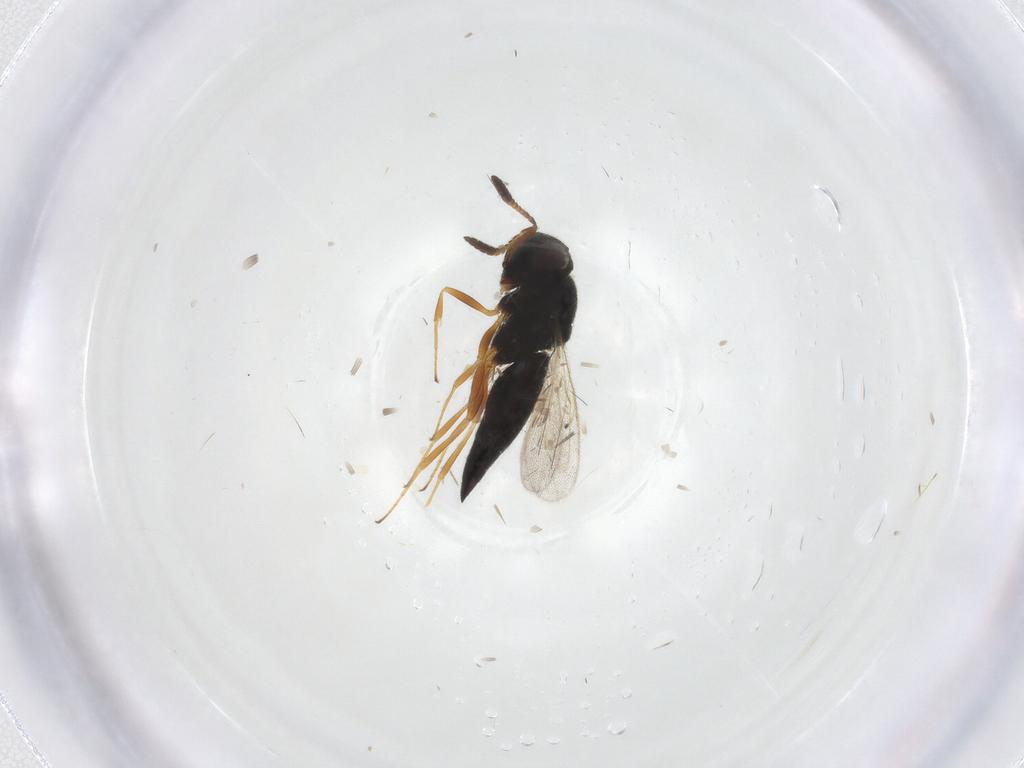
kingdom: Animalia
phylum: Arthropoda
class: Insecta
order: Hymenoptera
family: Scelionidae
